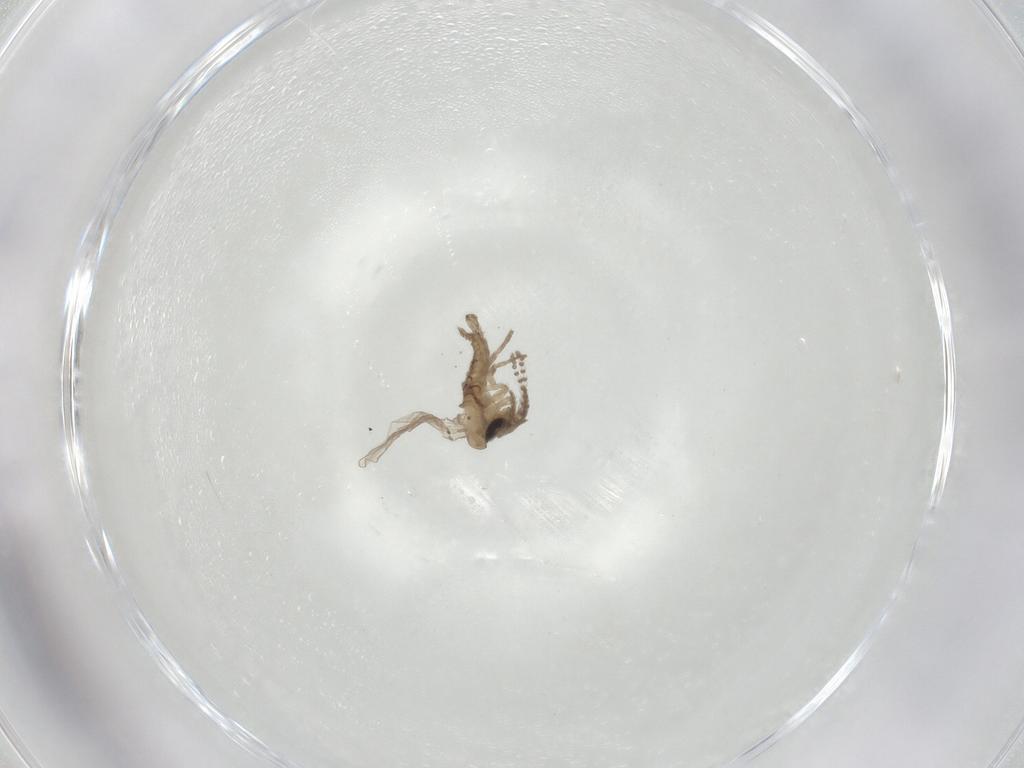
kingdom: Animalia
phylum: Arthropoda
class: Insecta
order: Diptera
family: Psychodidae
